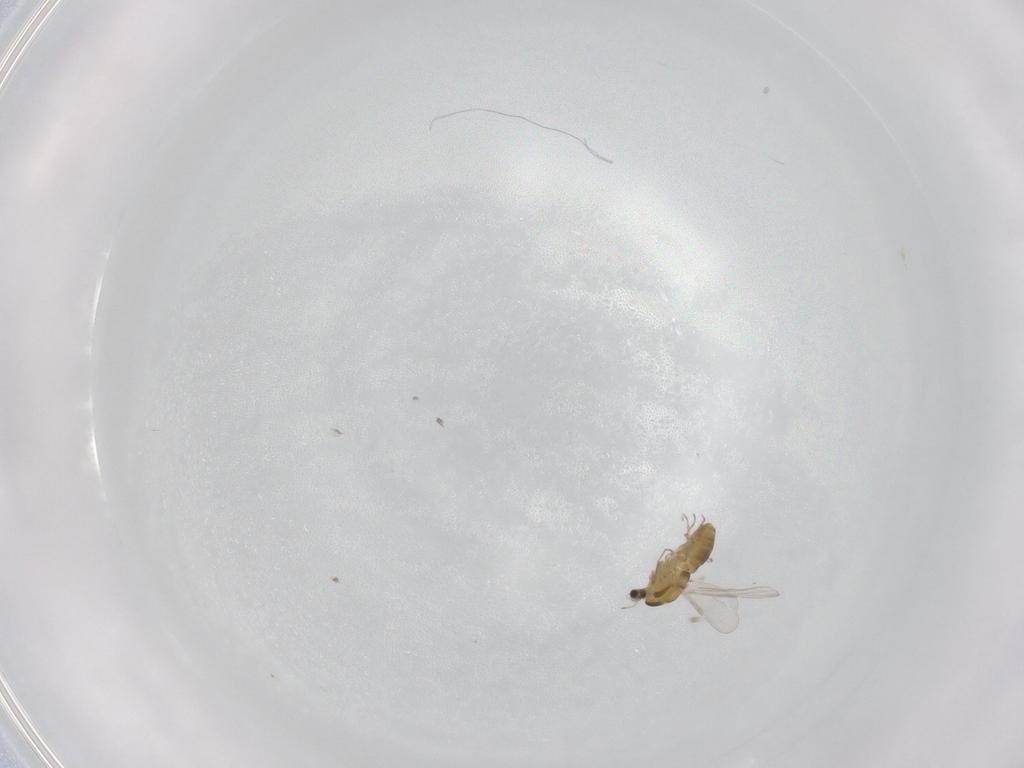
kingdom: Animalia
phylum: Arthropoda
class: Insecta
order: Diptera
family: Chironomidae
